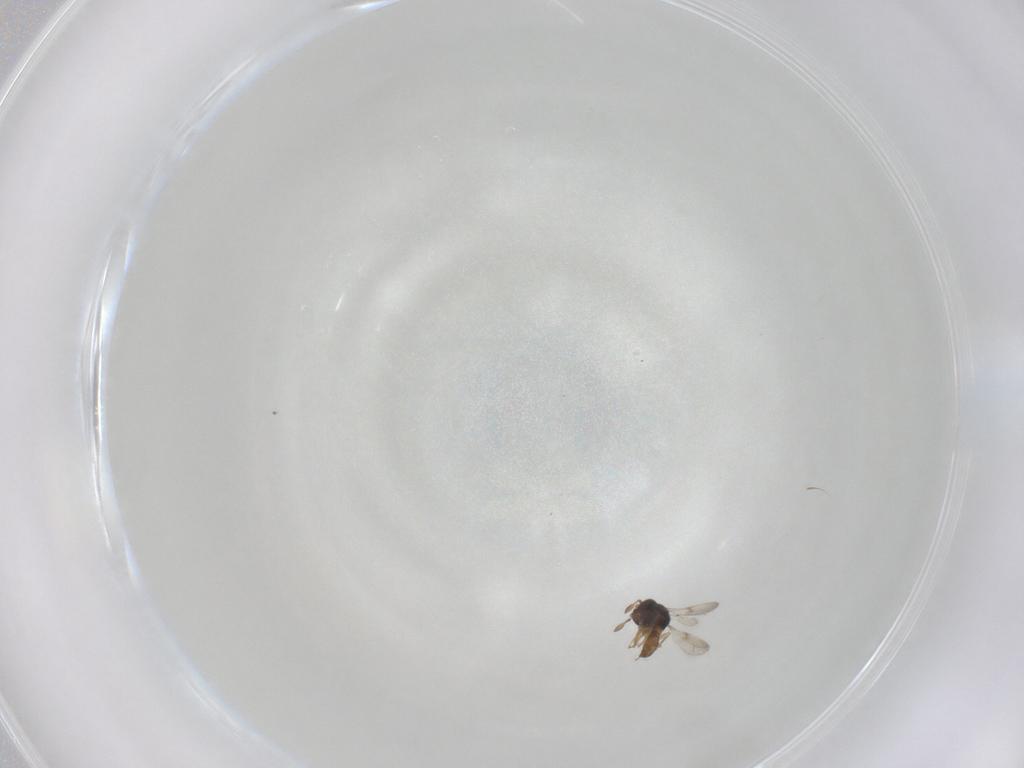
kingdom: Animalia
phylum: Arthropoda
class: Insecta
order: Hymenoptera
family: Scelionidae
